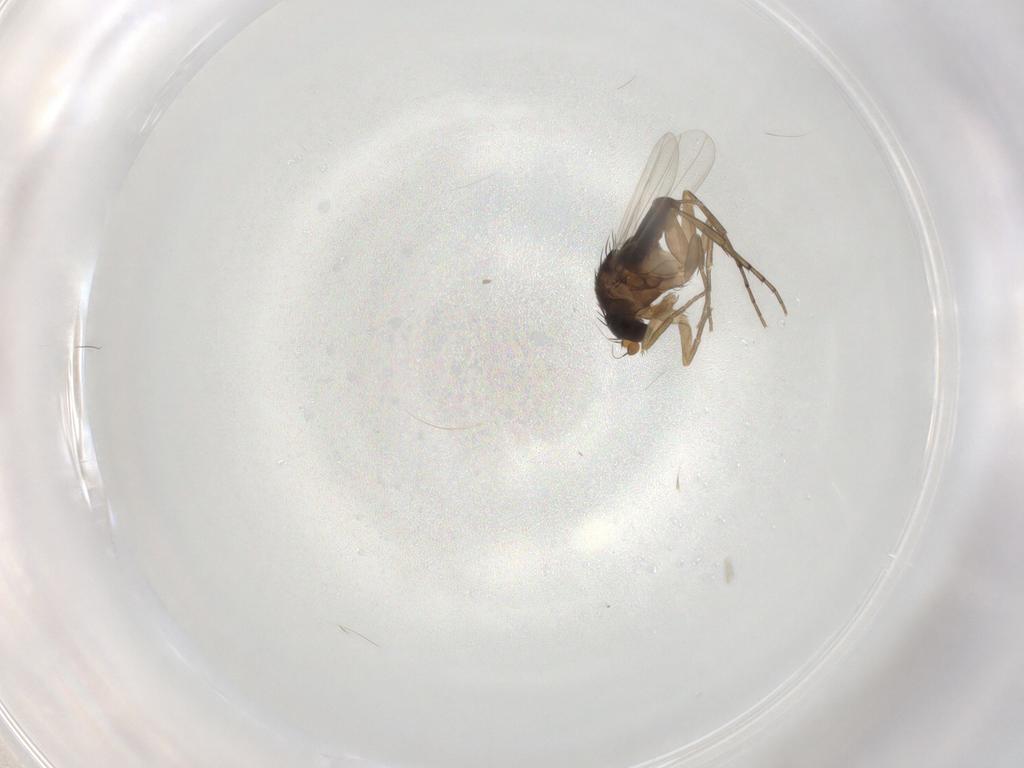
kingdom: Animalia
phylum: Arthropoda
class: Insecta
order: Diptera
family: Phoridae
